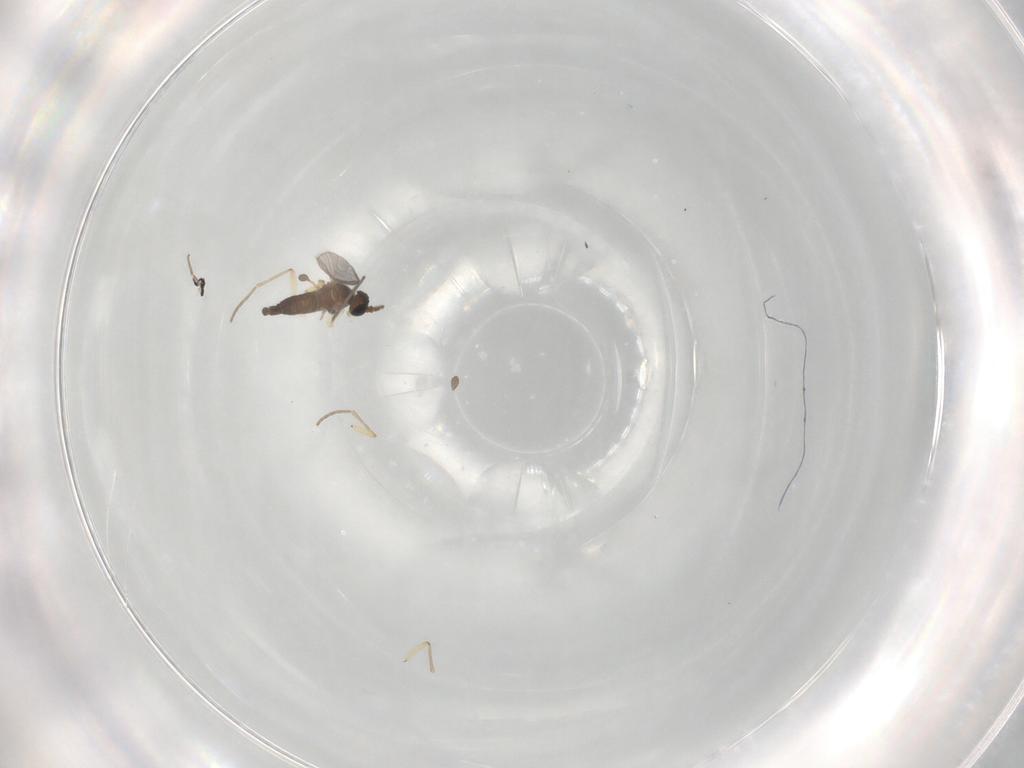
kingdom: Animalia
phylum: Arthropoda
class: Insecta
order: Diptera
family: Sciaridae
